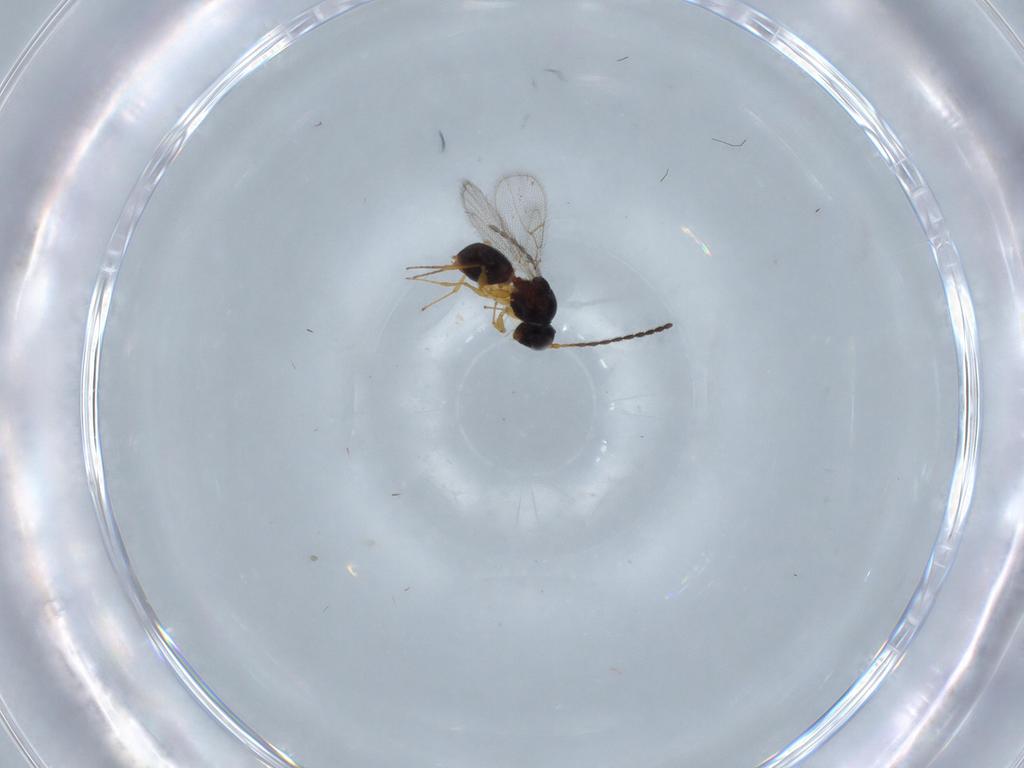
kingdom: Animalia
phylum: Arthropoda
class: Insecta
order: Hymenoptera
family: Figitidae
